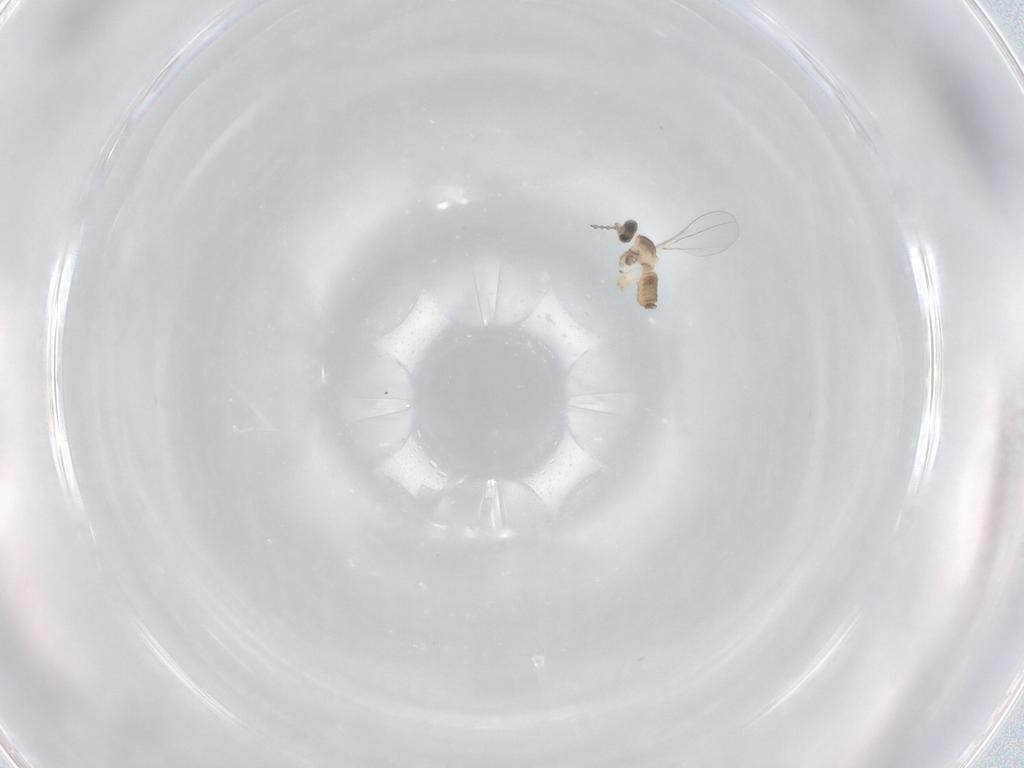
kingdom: Animalia
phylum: Arthropoda
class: Insecta
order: Diptera
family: Cecidomyiidae
